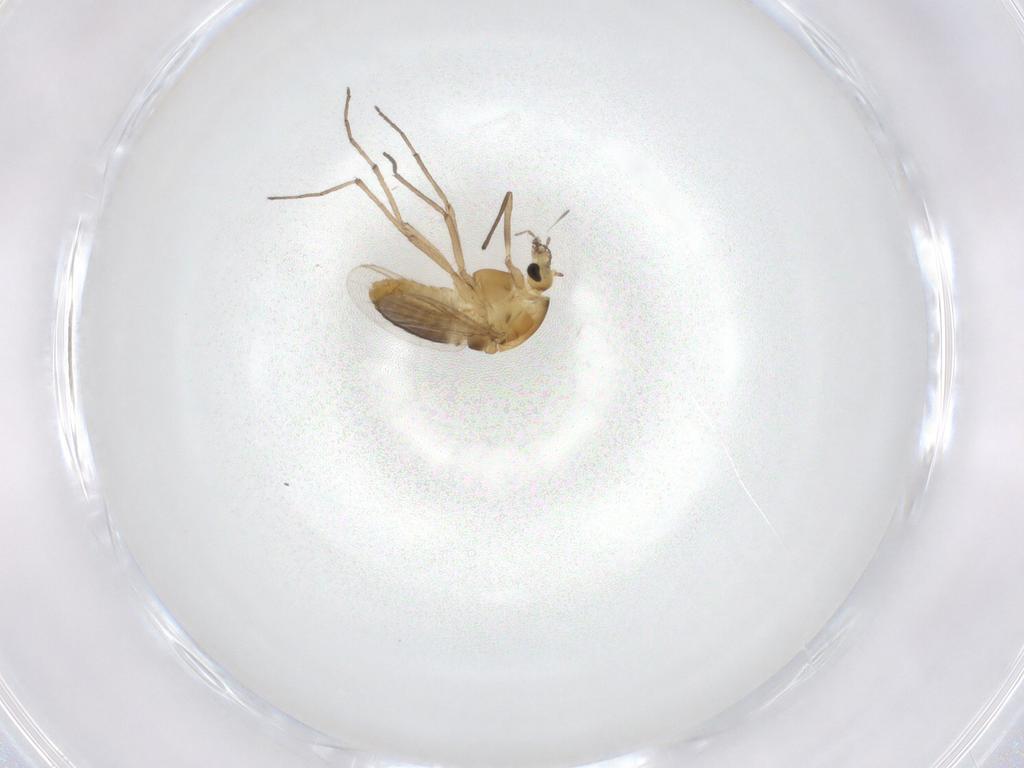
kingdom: Animalia
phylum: Arthropoda
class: Insecta
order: Diptera
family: Chironomidae
